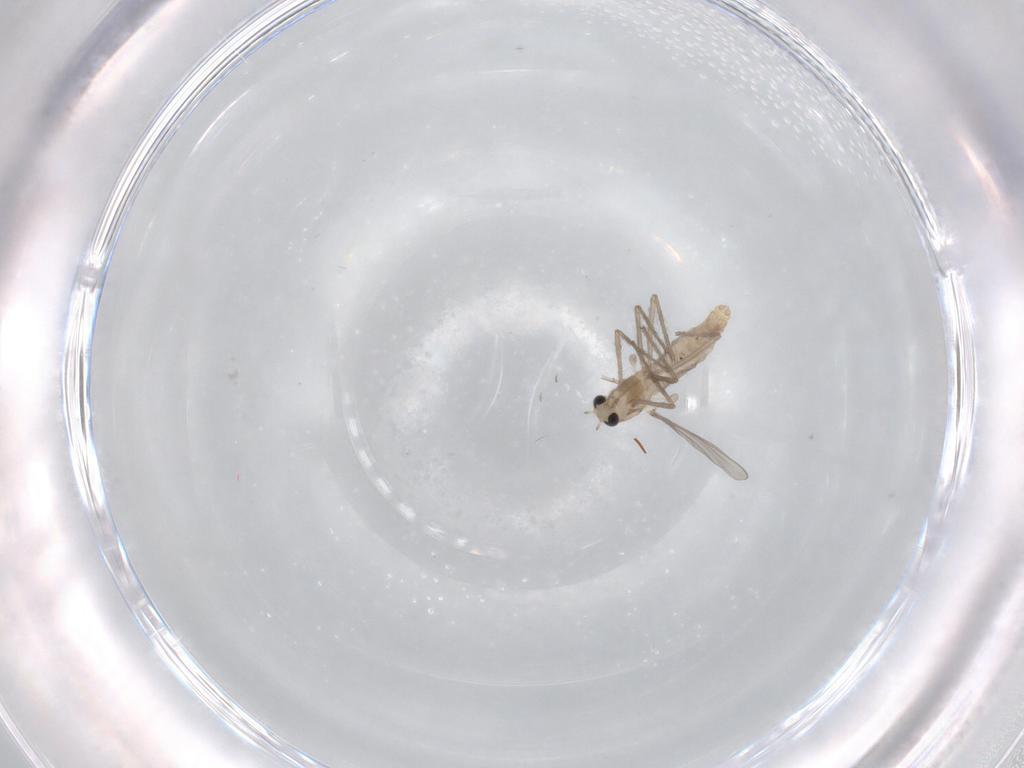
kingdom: Animalia
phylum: Arthropoda
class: Insecta
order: Diptera
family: Chironomidae
